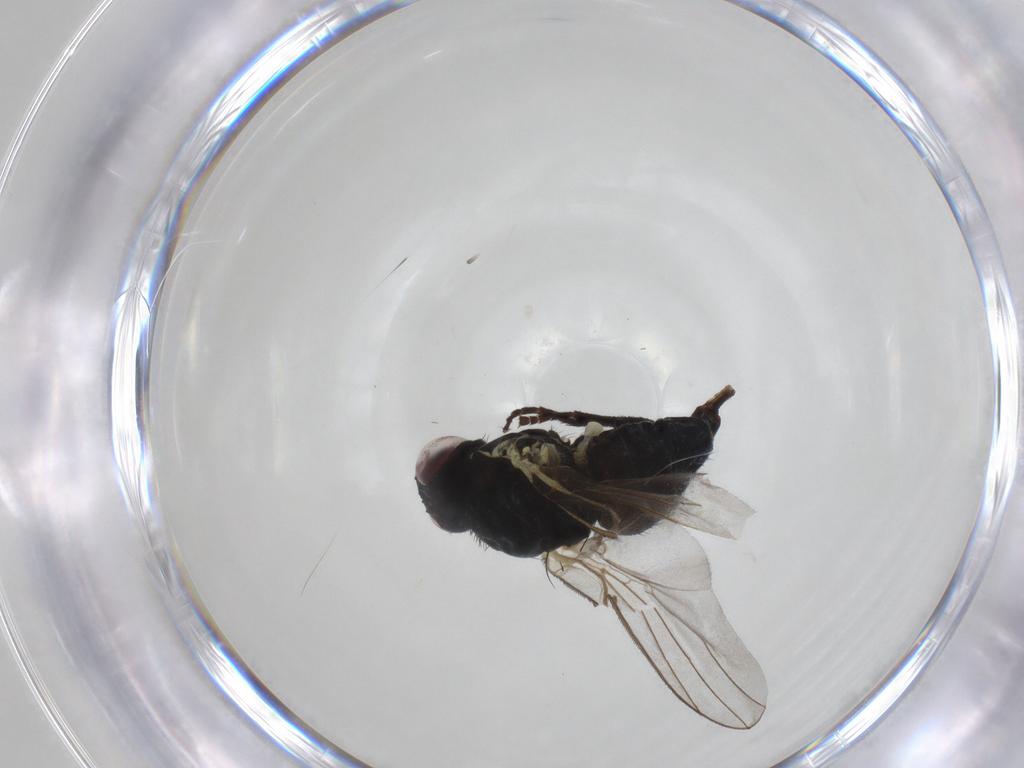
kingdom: Animalia
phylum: Arthropoda
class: Insecta
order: Diptera
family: Agromyzidae
